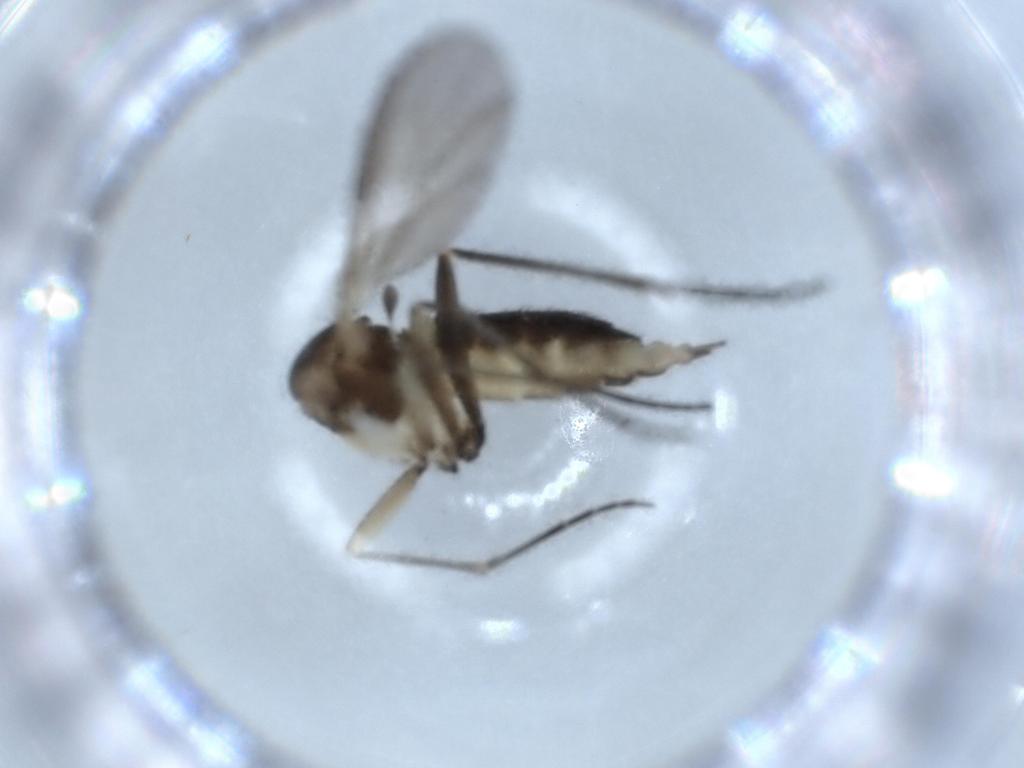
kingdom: Animalia
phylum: Arthropoda
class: Insecta
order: Diptera
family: Sciaridae
